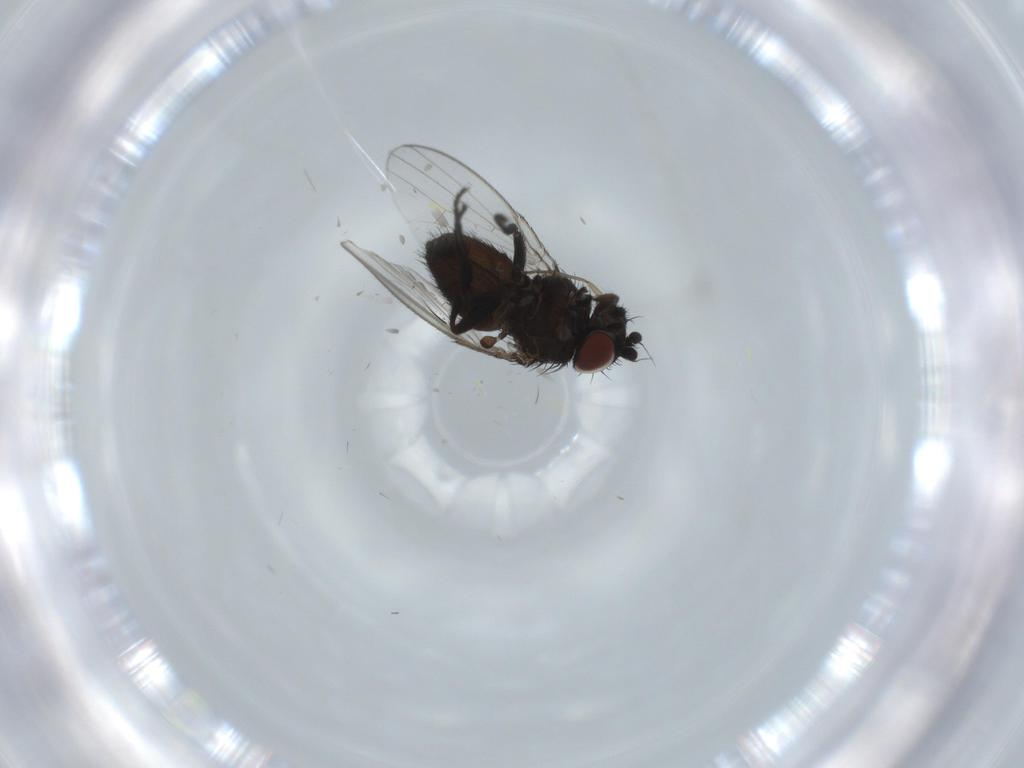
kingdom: Animalia
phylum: Arthropoda
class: Insecta
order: Diptera
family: Milichiidae
